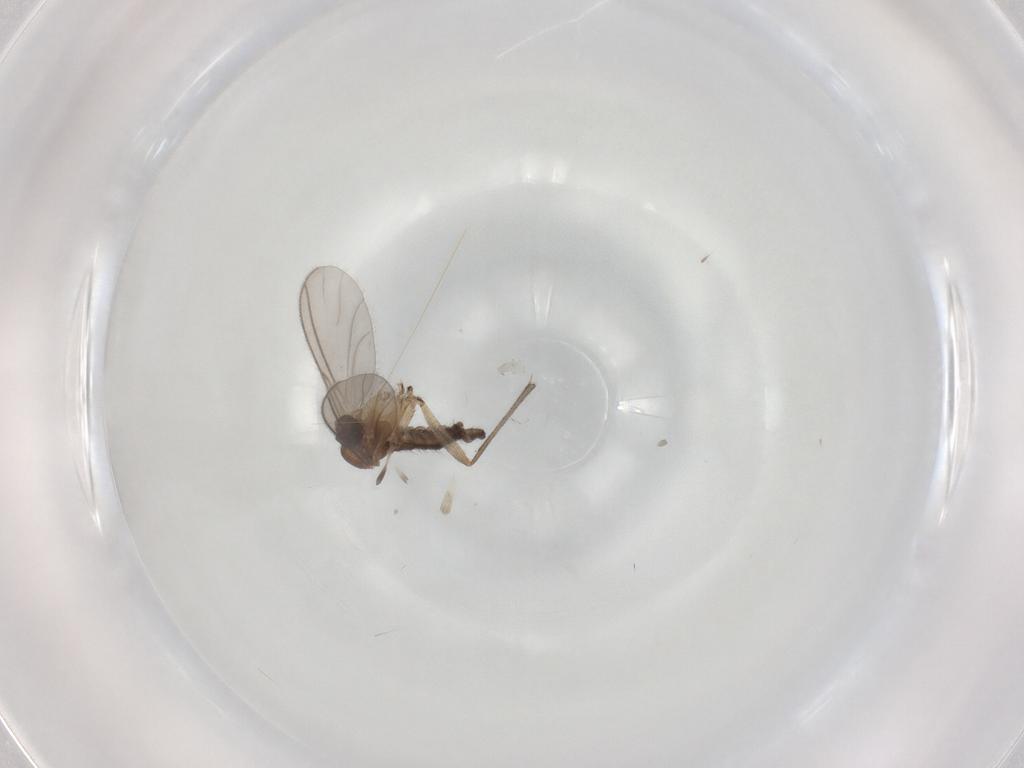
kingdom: Animalia
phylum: Arthropoda
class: Insecta
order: Diptera
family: Sciaridae
